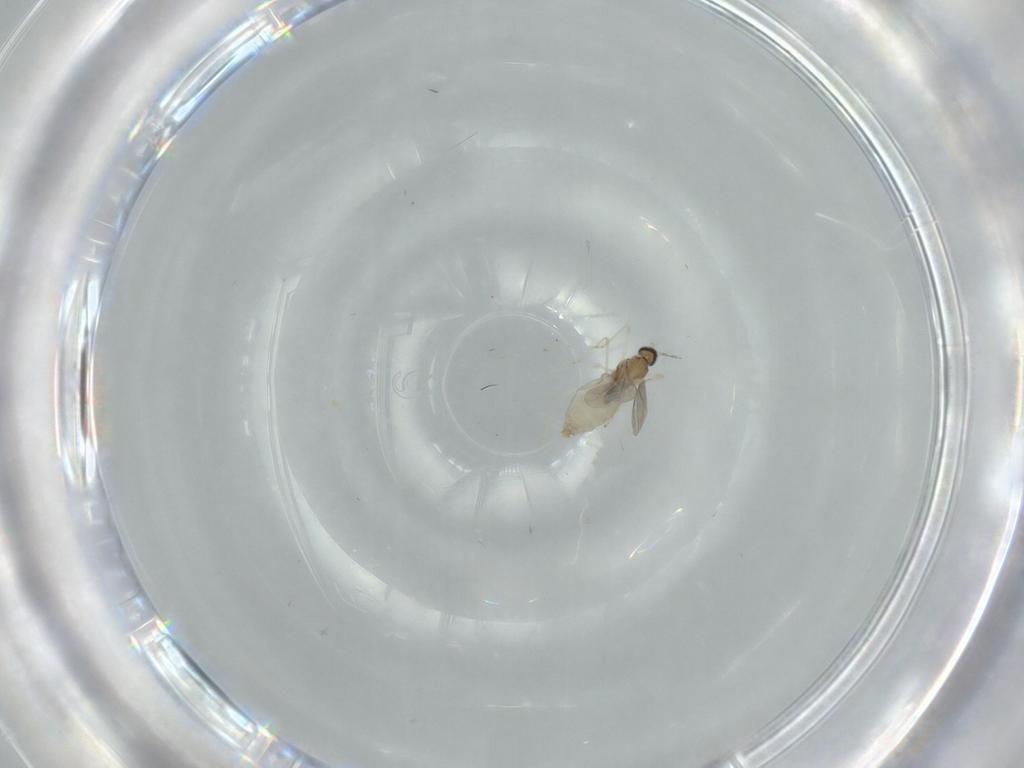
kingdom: Animalia
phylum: Arthropoda
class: Insecta
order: Diptera
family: Cecidomyiidae
